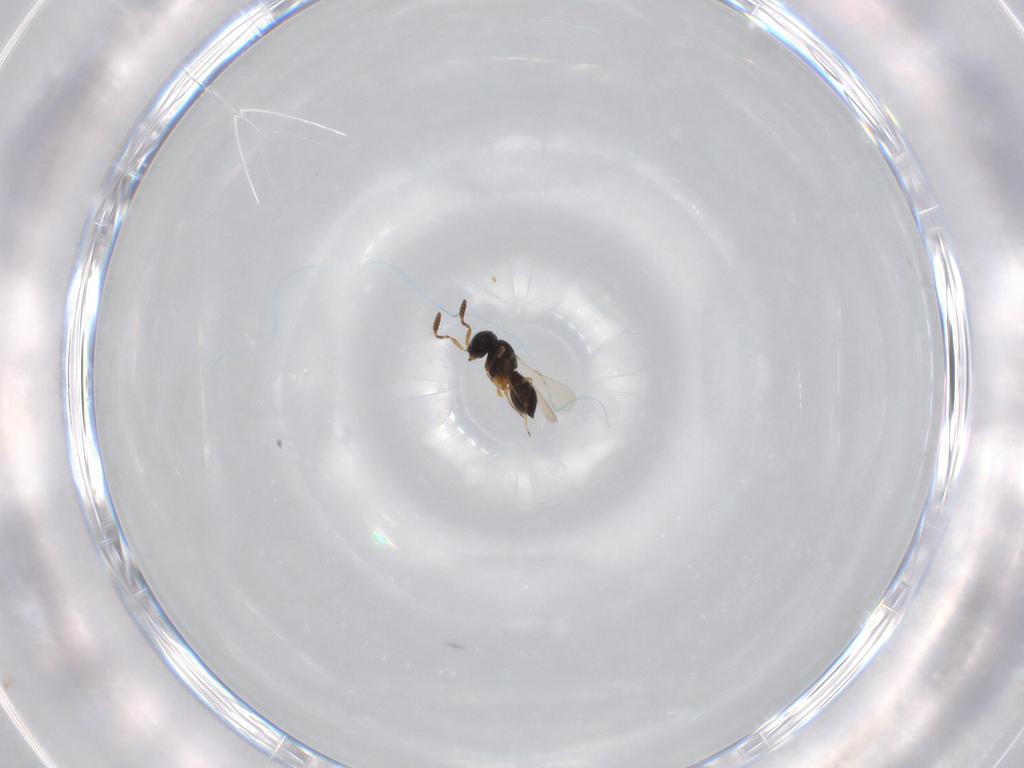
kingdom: Animalia
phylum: Arthropoda
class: Insecta
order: Hymenoptera
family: Scelionidae
